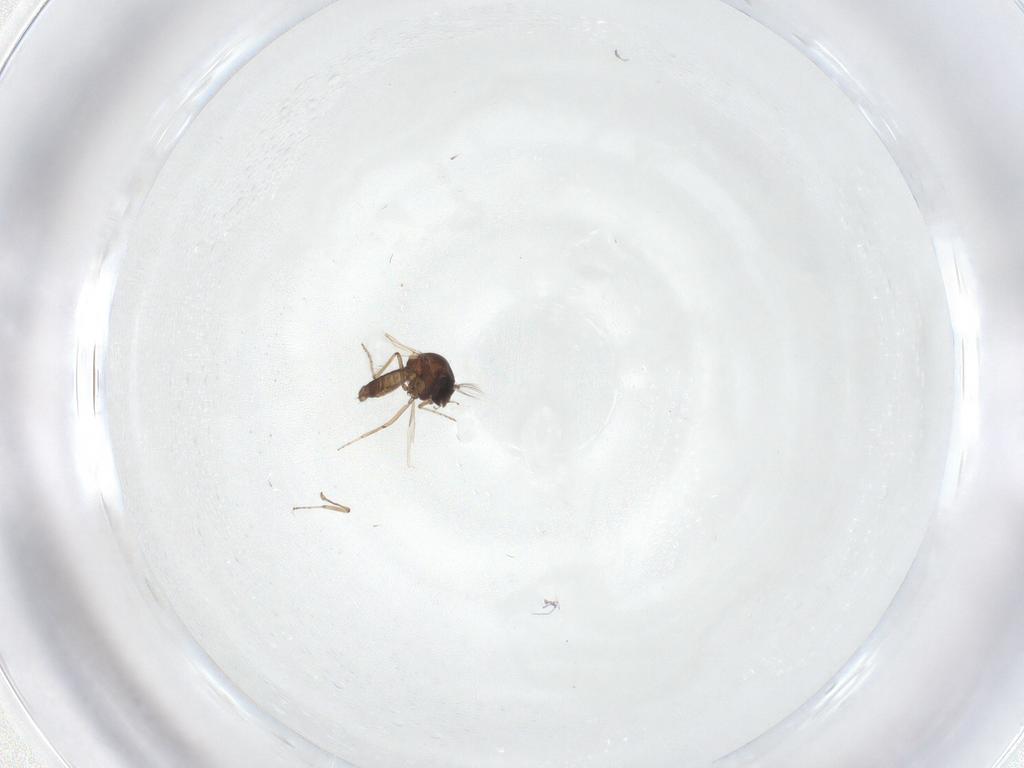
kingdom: Animalia
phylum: Arthropoda
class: Insecta
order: Diptera
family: Ceratopogonidae
